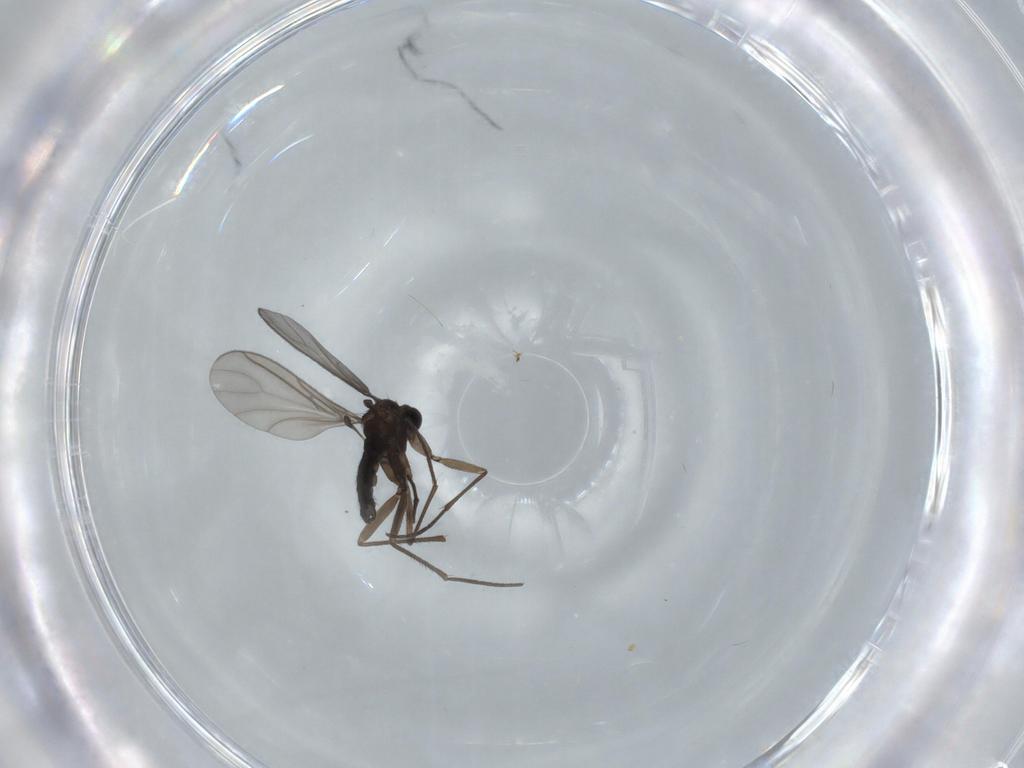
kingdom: Animalia
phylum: Arthropoda
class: Insecta
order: Diptera
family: Sciaridae
